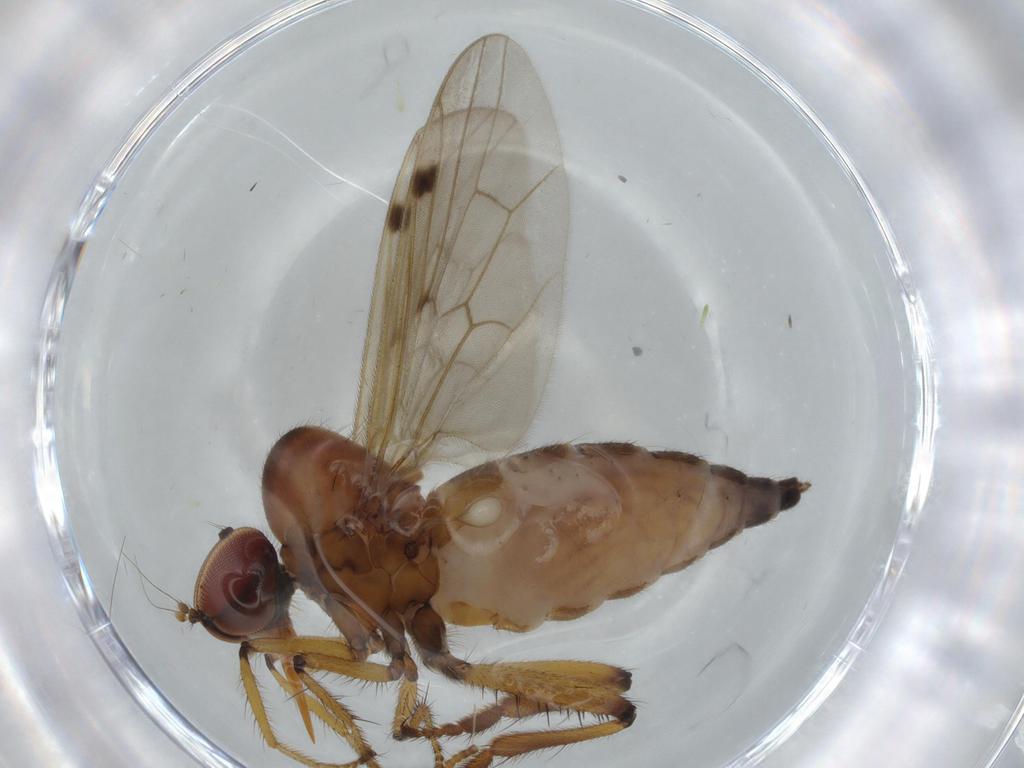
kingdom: Animalia
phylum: Arthropoda
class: Insecta
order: Diptera
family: Hybotidae
